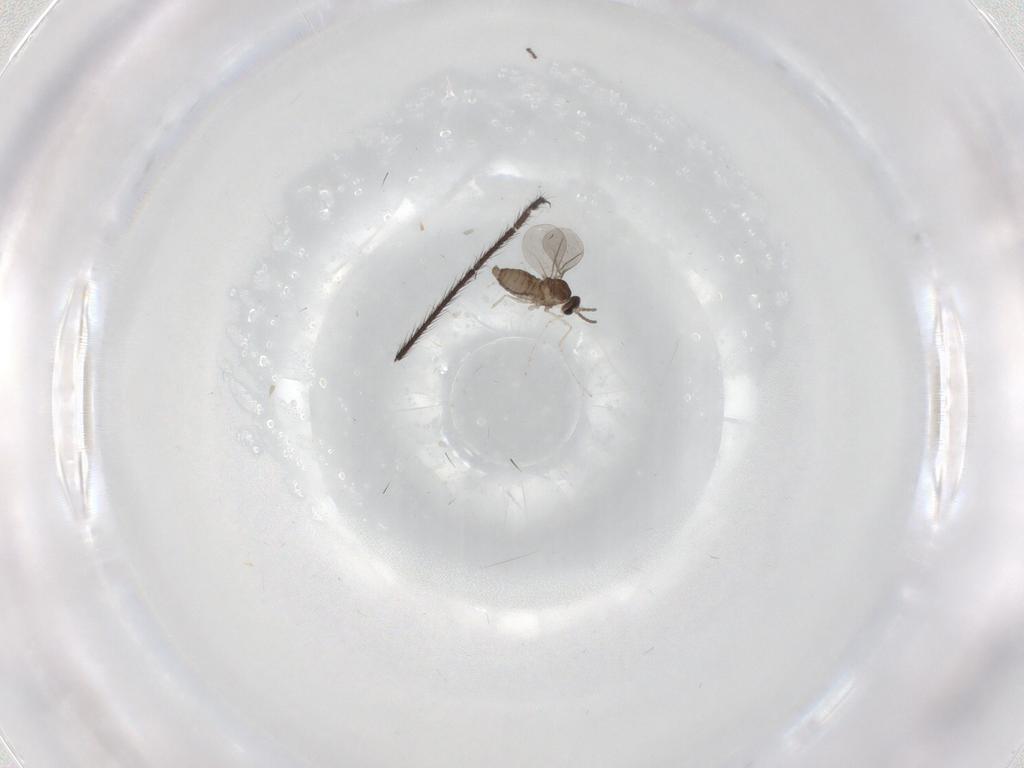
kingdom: Animalia
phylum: Arthropoda
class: Insecta
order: Diptera
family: Cecidomyiidae
